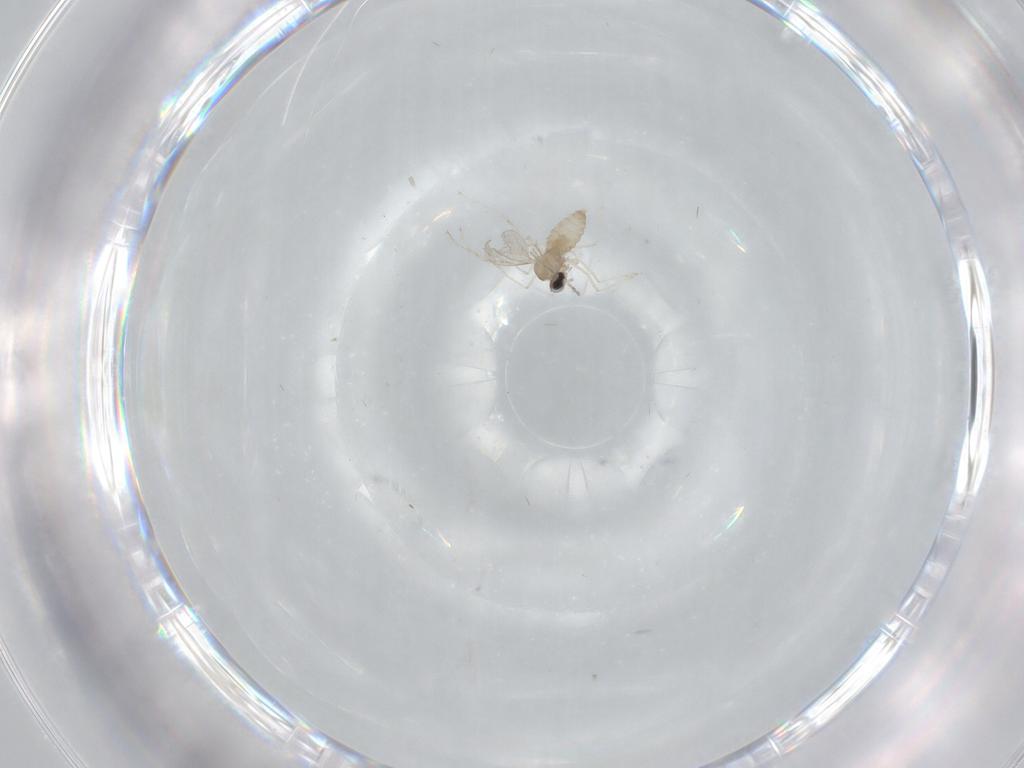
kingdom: Animalia
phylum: Arthropoda
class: Insecta
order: Diptera
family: Cecidomyiidae
